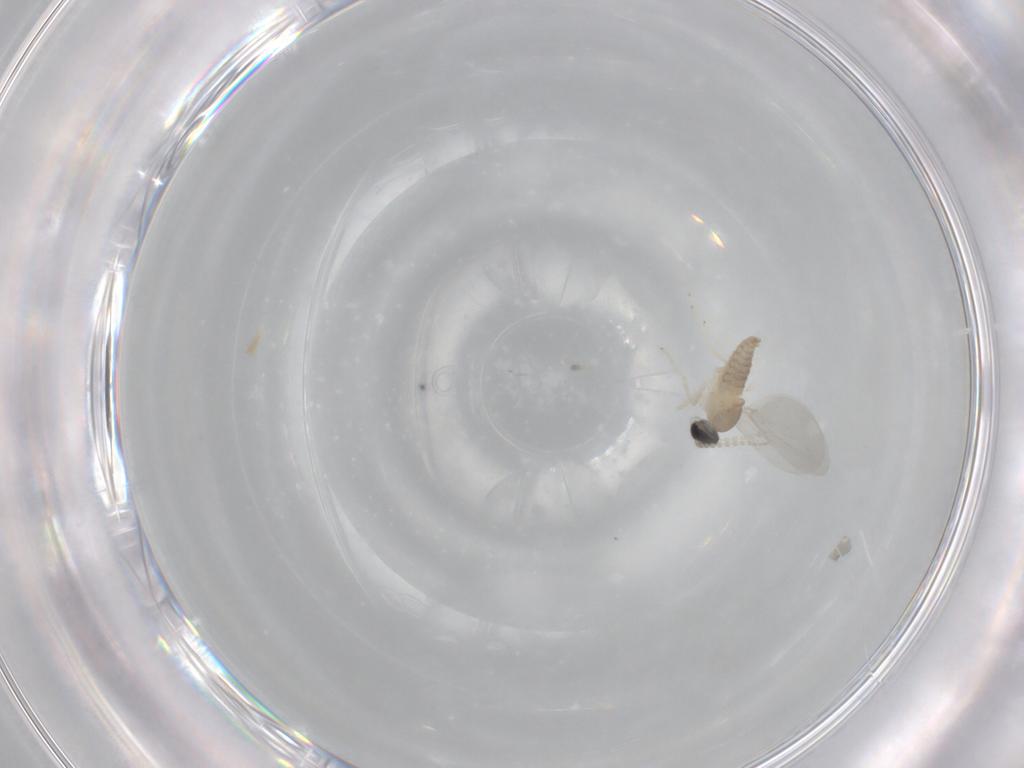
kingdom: Animalia
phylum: Arthropoda
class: Insecta
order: Diptera
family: Cecidomyiidae
